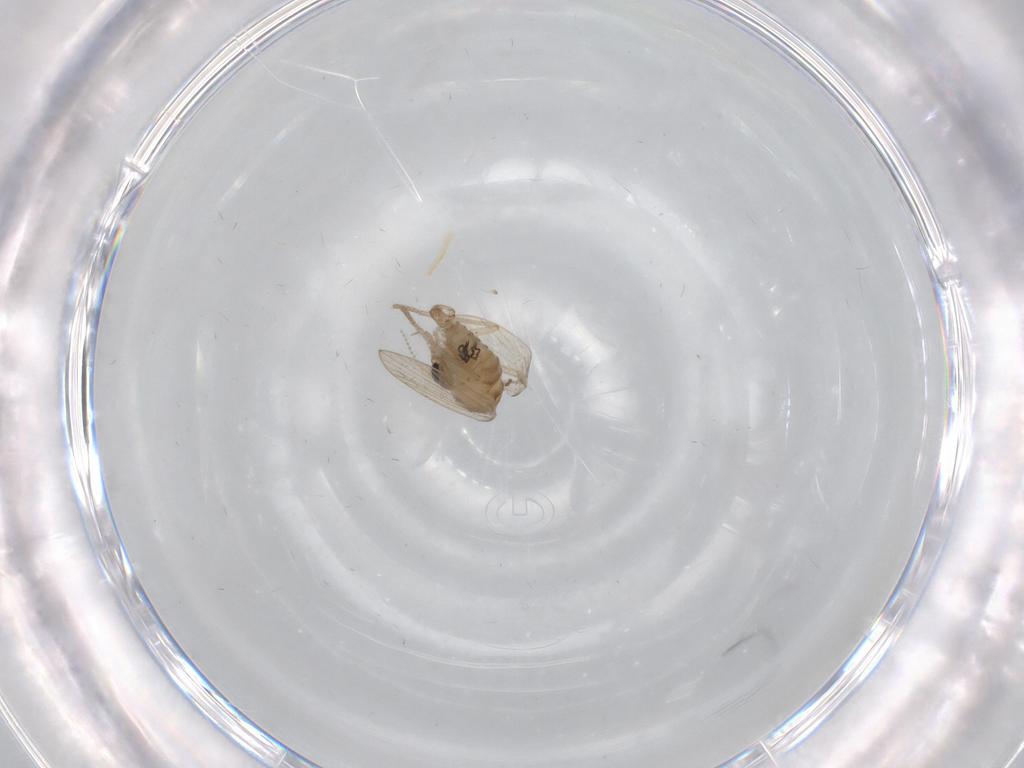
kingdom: Animalia
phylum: Arthropoda
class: Insecta
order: Diptera
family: Psychodidae
